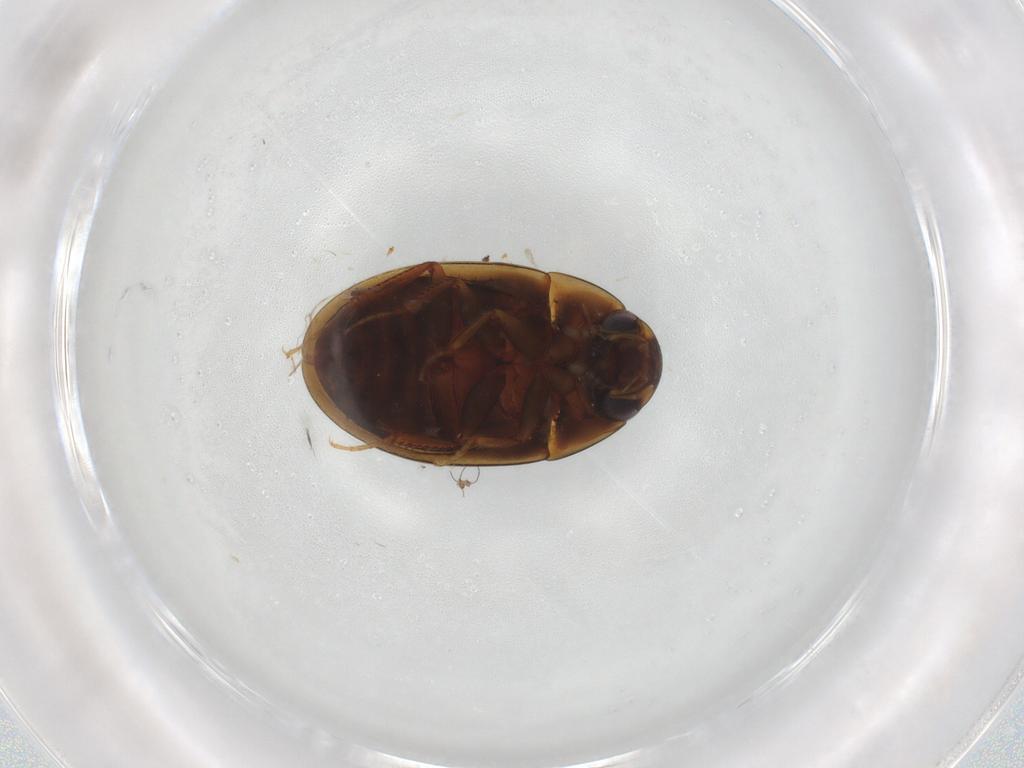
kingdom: Animalia
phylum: Arthropoda
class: Insecta
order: Coleoptera
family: Hydrophilidae
